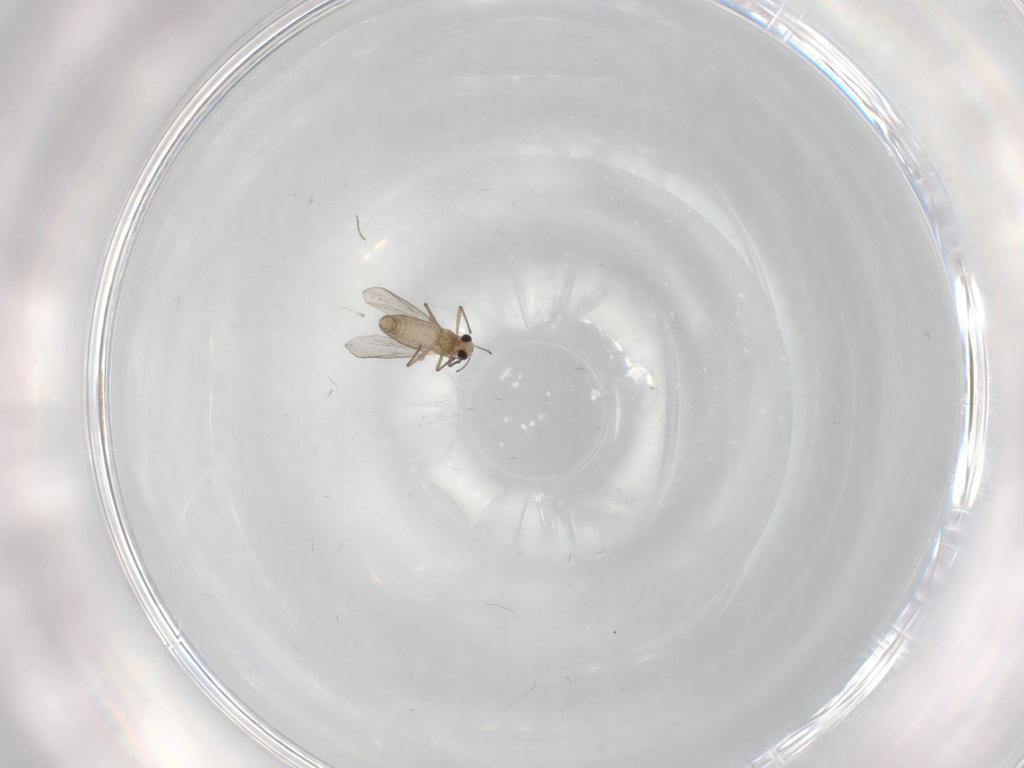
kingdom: Animalia
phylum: Arthropoda
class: Insecta
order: Diptera
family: Chironomidae
